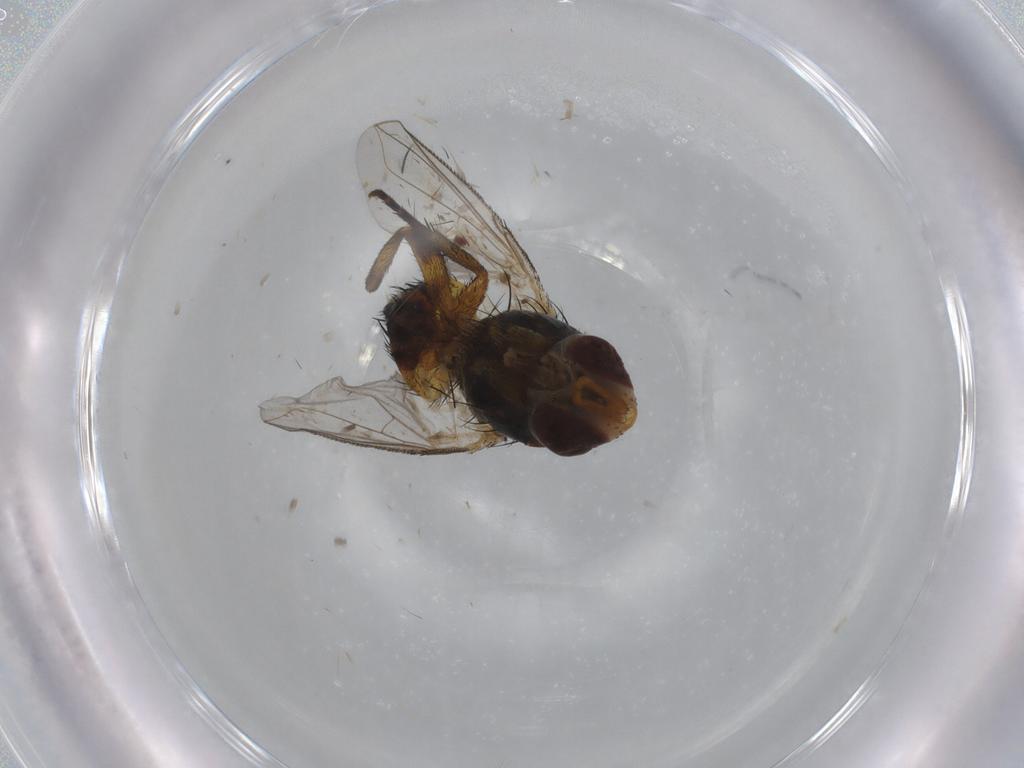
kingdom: Animalia
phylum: Arthropoda
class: Insecta
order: Diptera
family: Tachinidae
